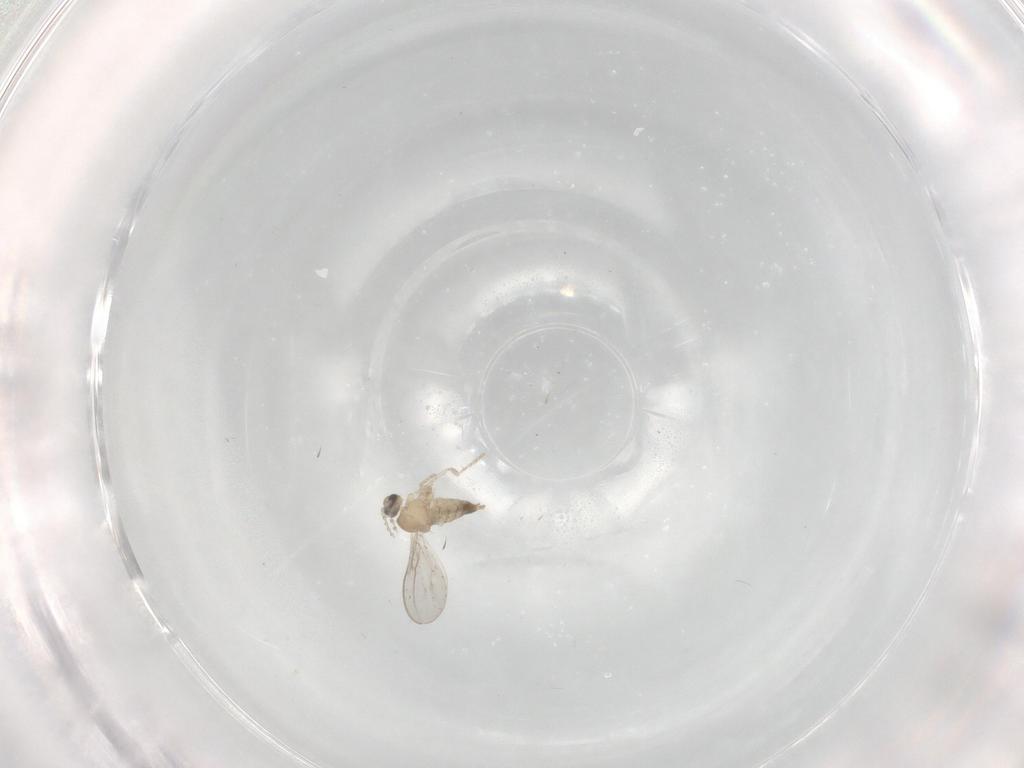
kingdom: Animalia
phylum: Arthropoda
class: Insecta
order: Diptera
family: Cecidomyiidae
